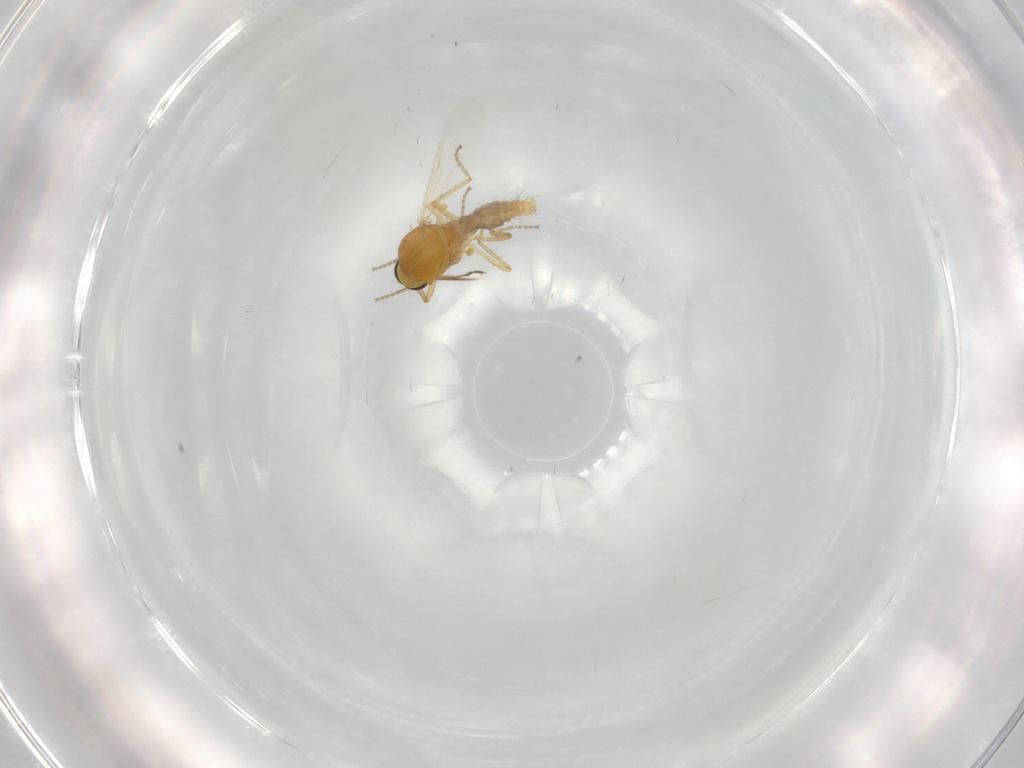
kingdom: Animalia
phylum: Arthropoda
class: Insecta
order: Diptera
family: Ceratopogonidae
